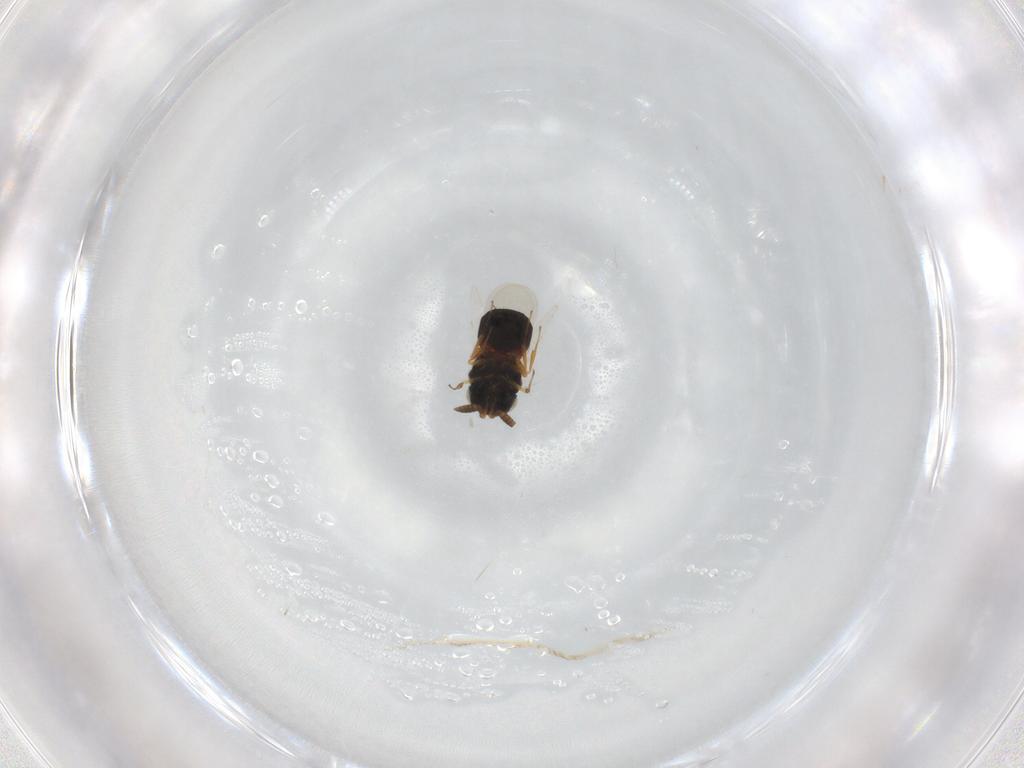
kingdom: Animalia
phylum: Arthropoda
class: Insecta
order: Hymenoptera
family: Scelionidae
